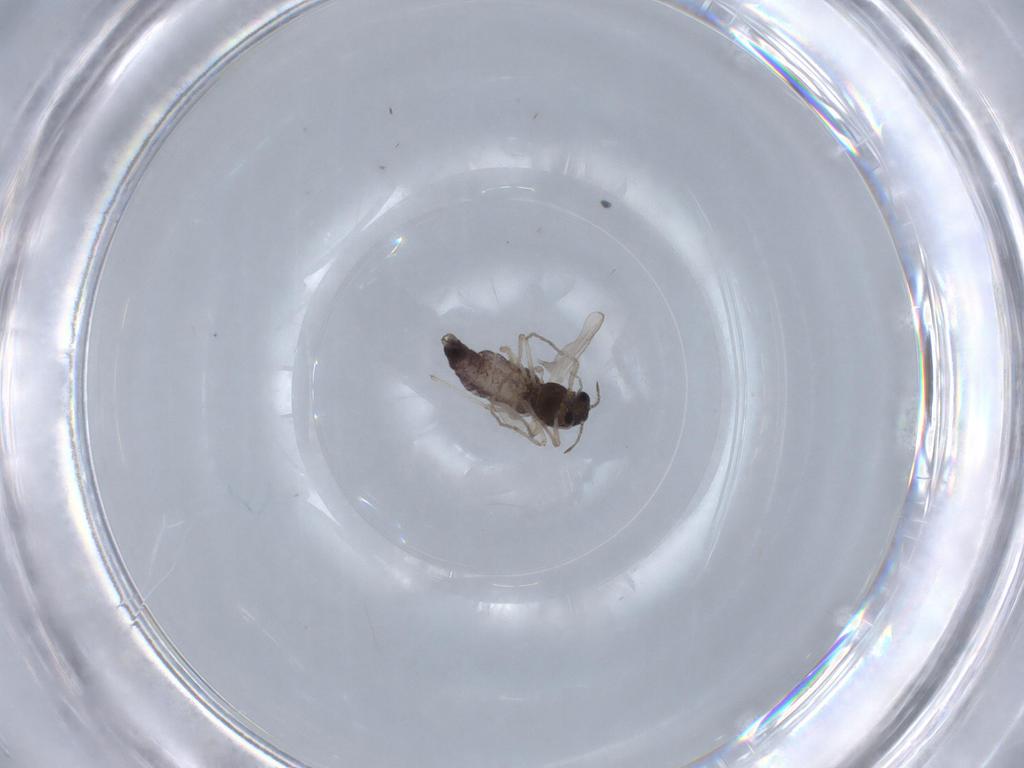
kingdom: Animalia
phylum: Arthropoda
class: Insecta
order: Diptera
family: Chironomidae
